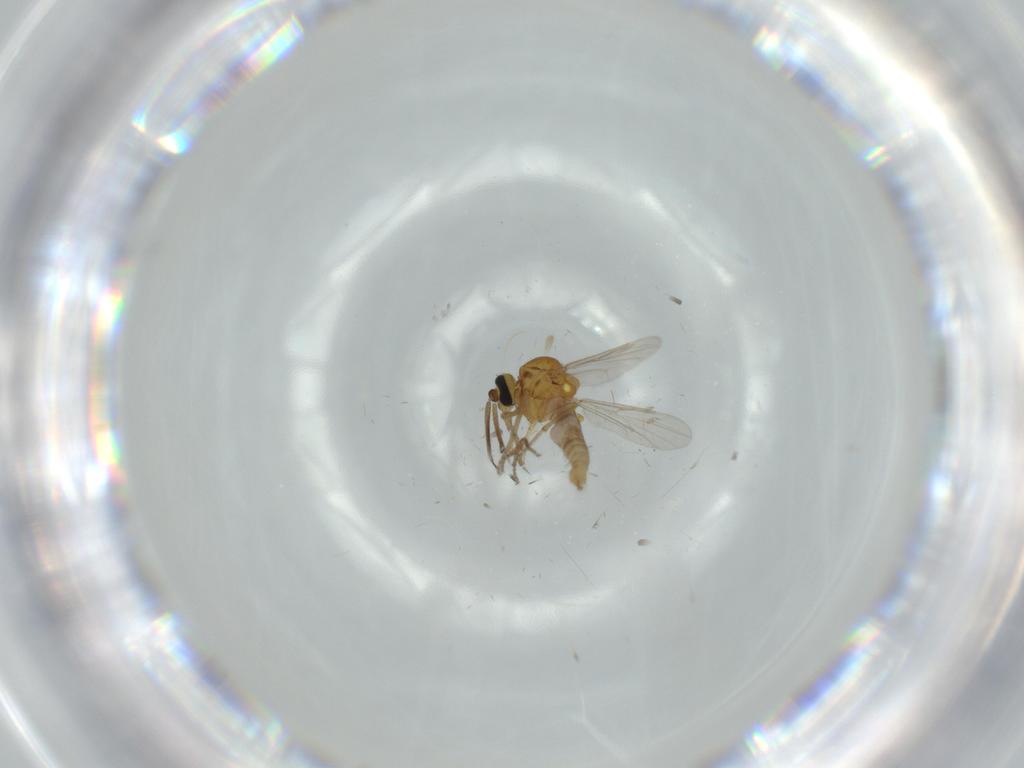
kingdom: Animalia
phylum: Arthropoda
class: Insecta
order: Diptera
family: Ceratopogonidae
